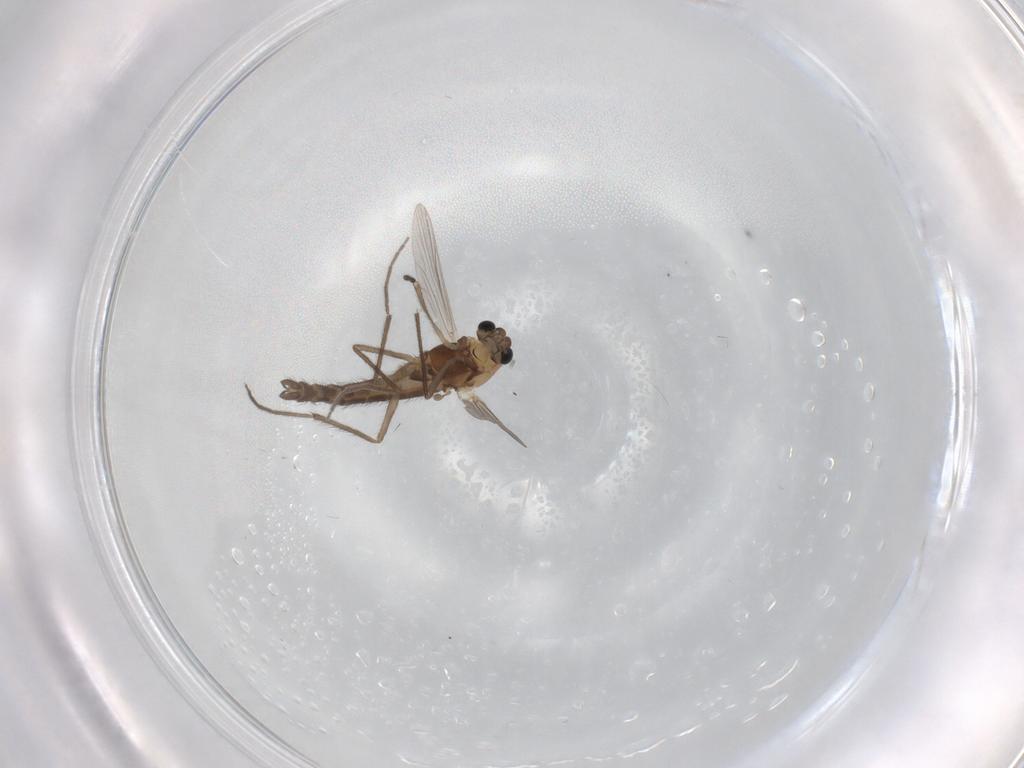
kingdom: Animalia
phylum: Arthropoda
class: Insecta
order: Diptera
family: Chironomidae
